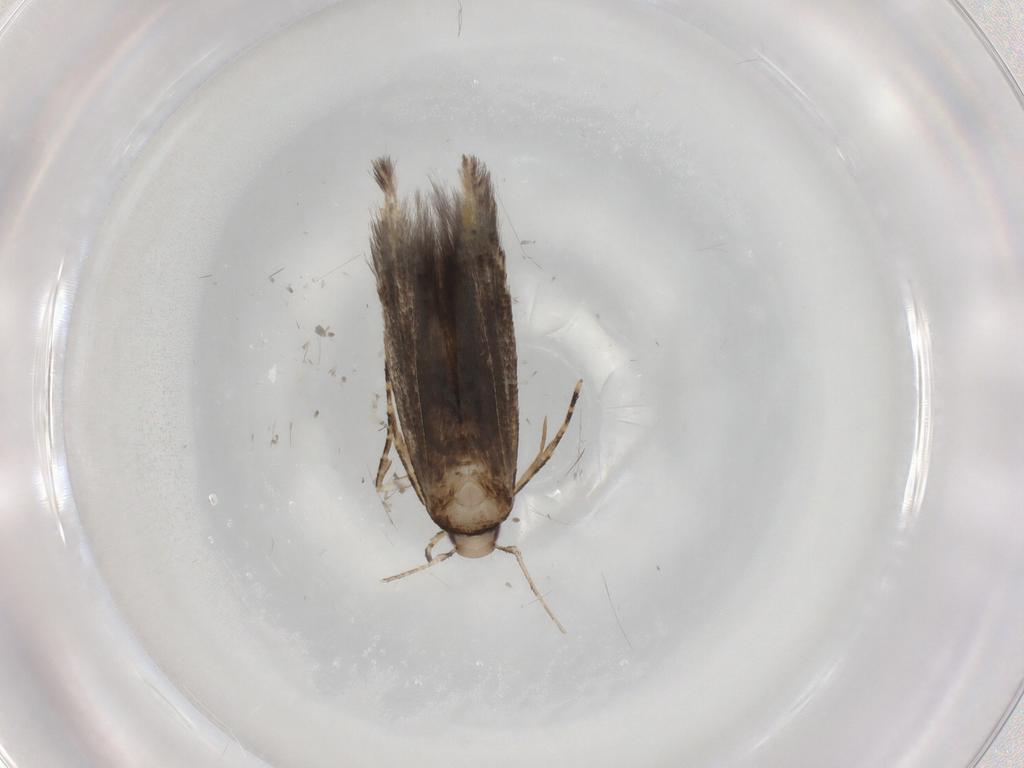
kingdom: Animalia
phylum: Arthropoda
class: Insecta
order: Lepidoptera
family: Cosmopterigidae
